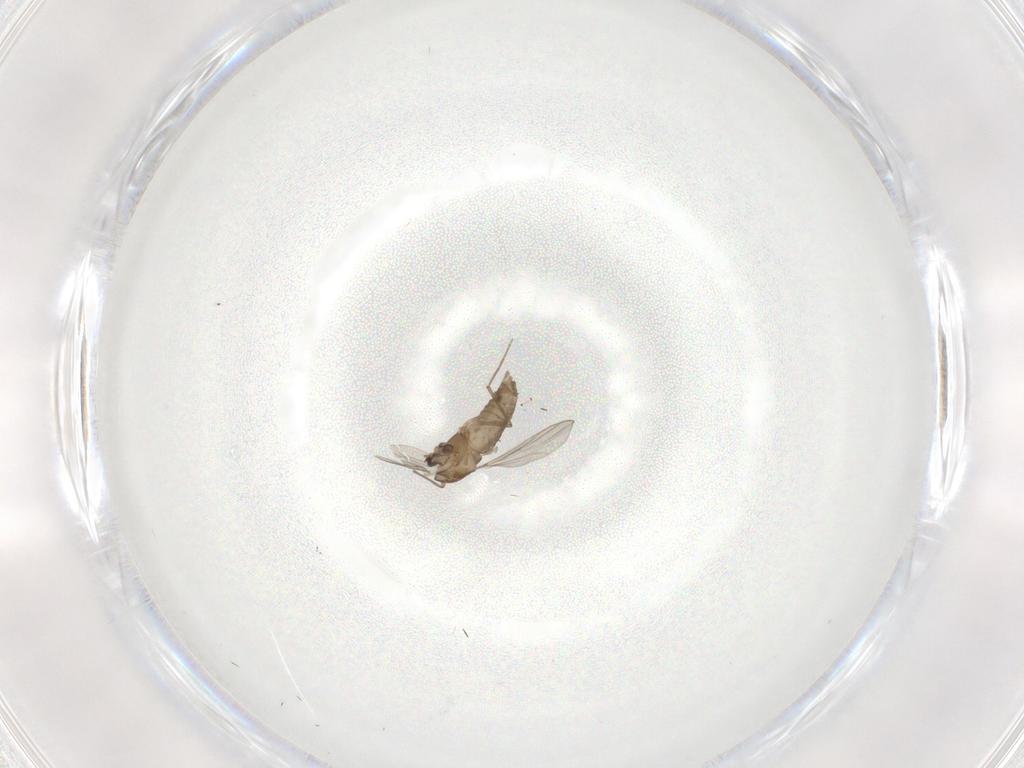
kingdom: Animalia
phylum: Arthropoda
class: Insecta
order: Diptera
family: Chironomidae
